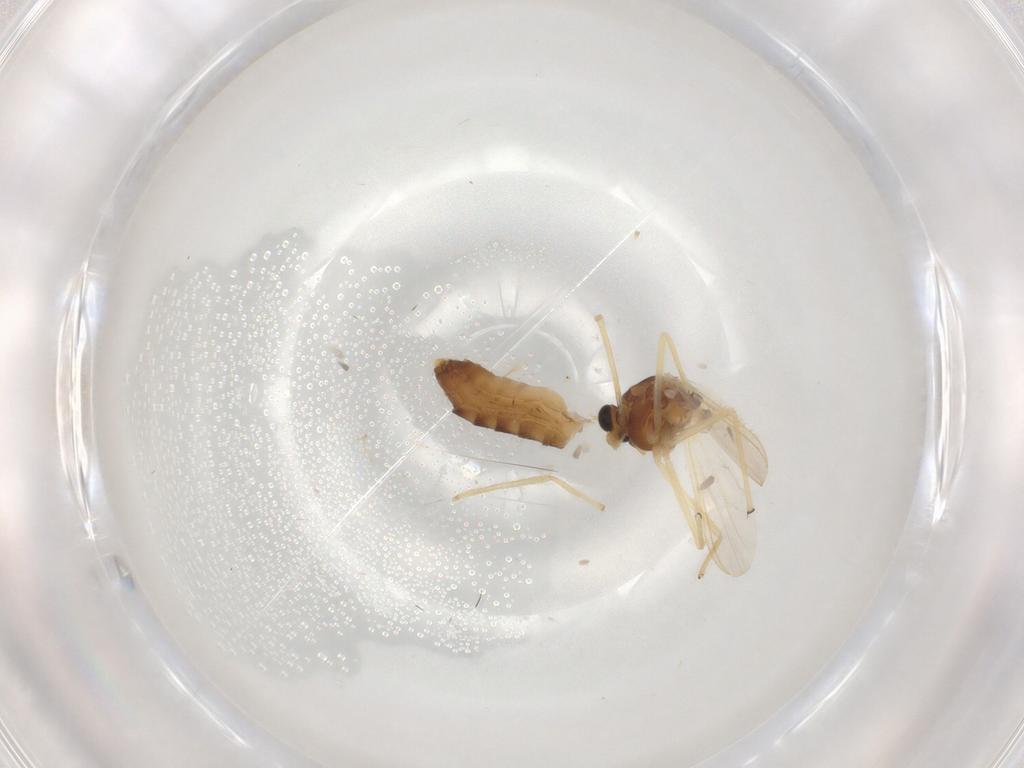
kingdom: Animalia
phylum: Arthropoda
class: Insecta
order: Diptera
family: Chironomidae
